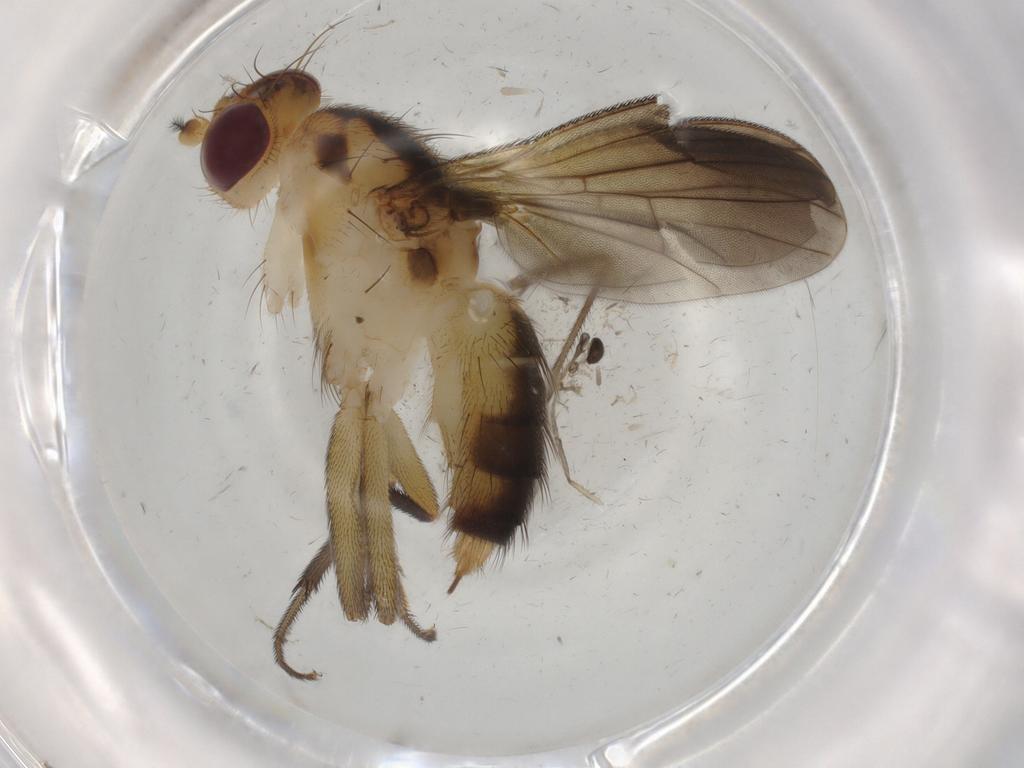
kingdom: Animalia
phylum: Arthropoda
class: Insecta
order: Diptera
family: Clusiidae
